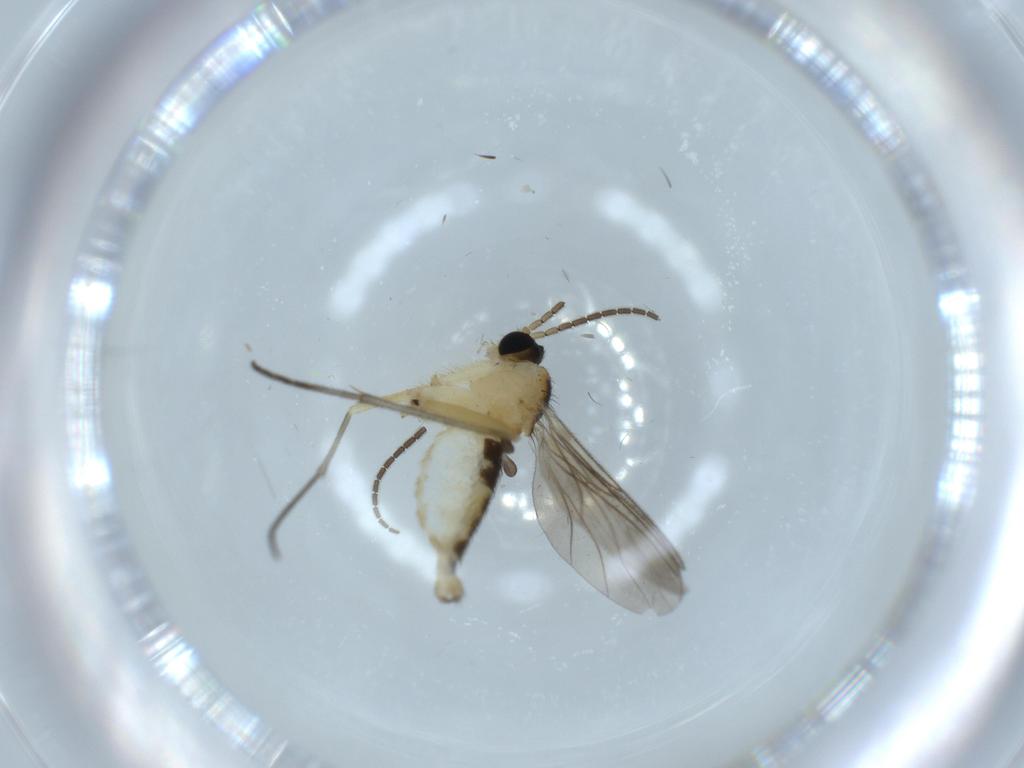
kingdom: Animalia
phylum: Arthropoda
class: Insecta
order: Diptera
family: Sciaridae
